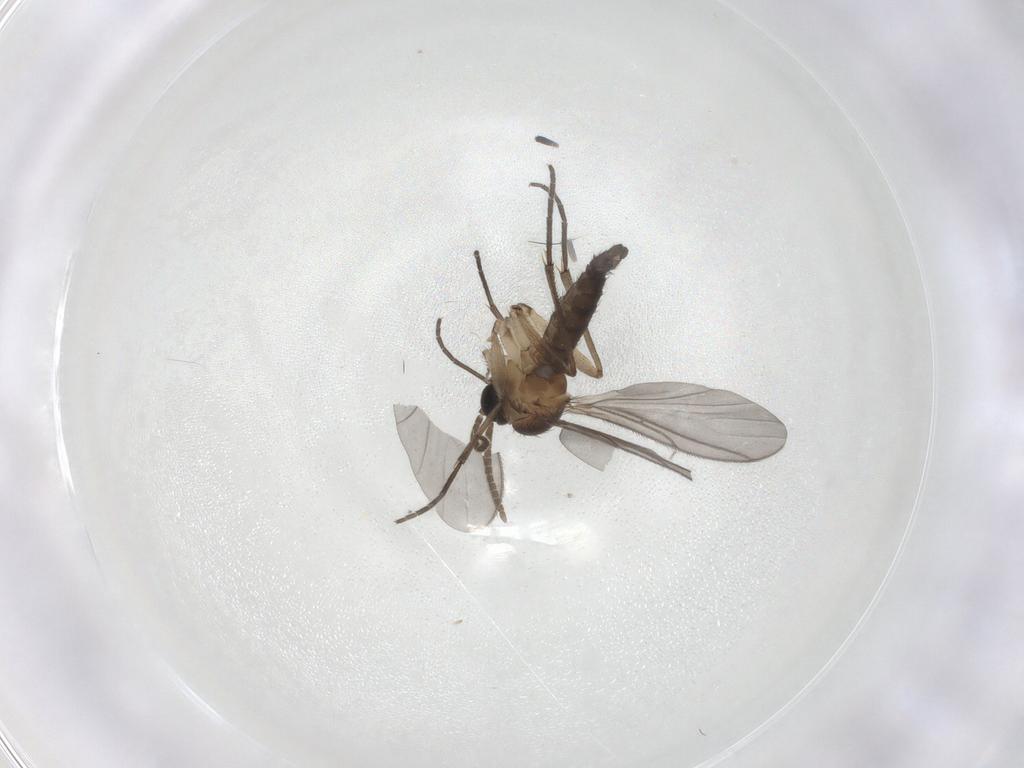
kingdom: Animalia
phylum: Arthropoda
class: Insecta
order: Diptera
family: Sciaridae
